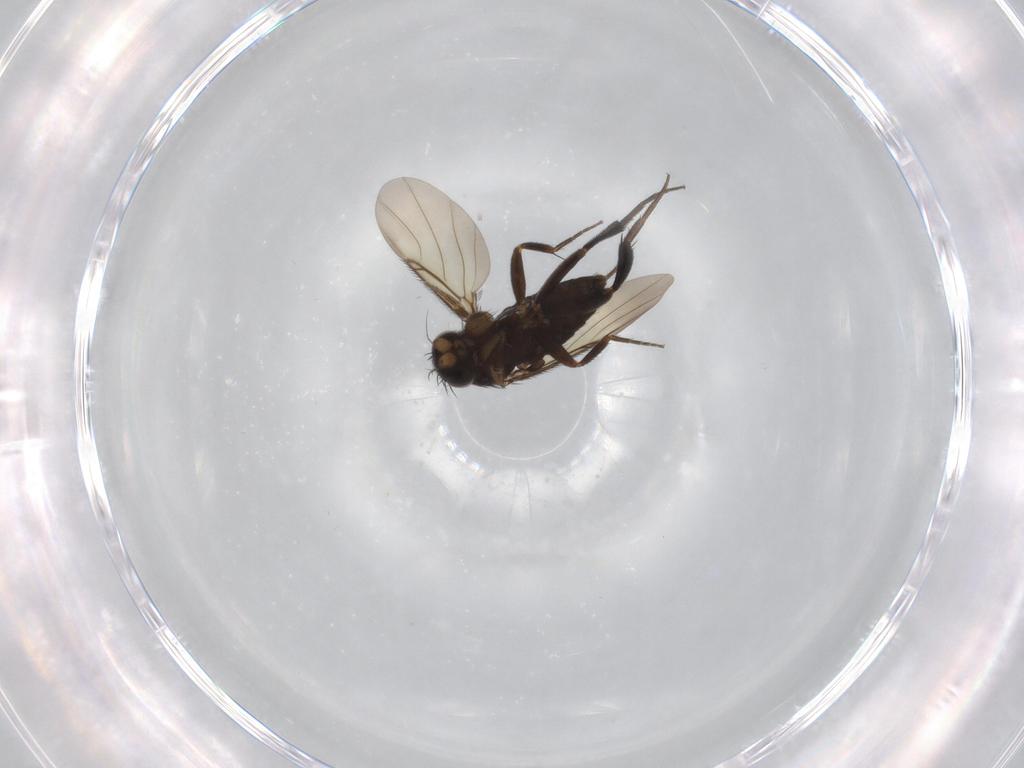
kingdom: Animalia
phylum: Arthropoda
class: Insecta
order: Diptera
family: Phoridae
